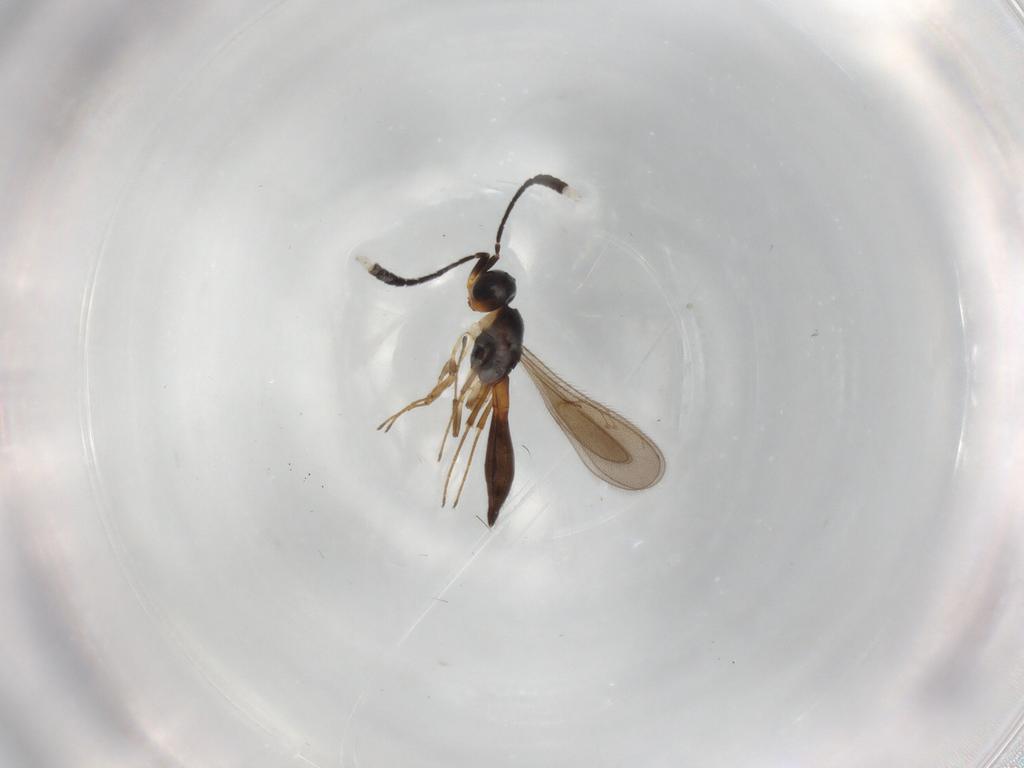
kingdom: Animalia
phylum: Arthropoda
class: Insecta
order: Hymenoptera
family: Scelionidae
